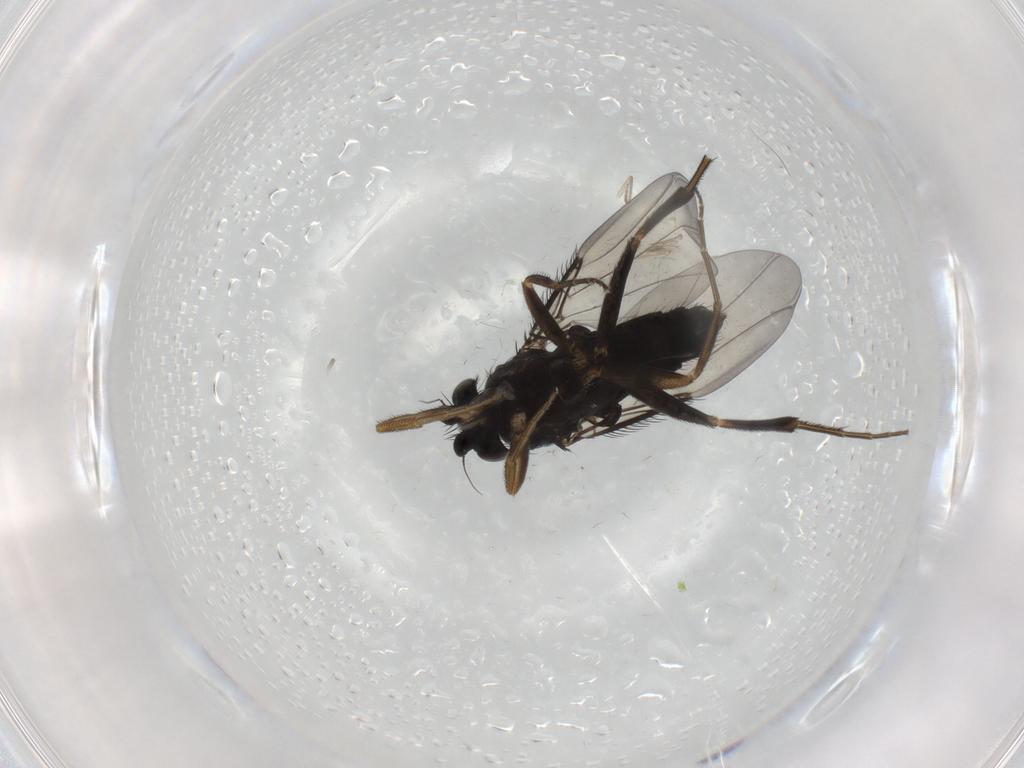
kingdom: Animalia
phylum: Arthropoda
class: Insecta
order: Diptera
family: Phoridae
